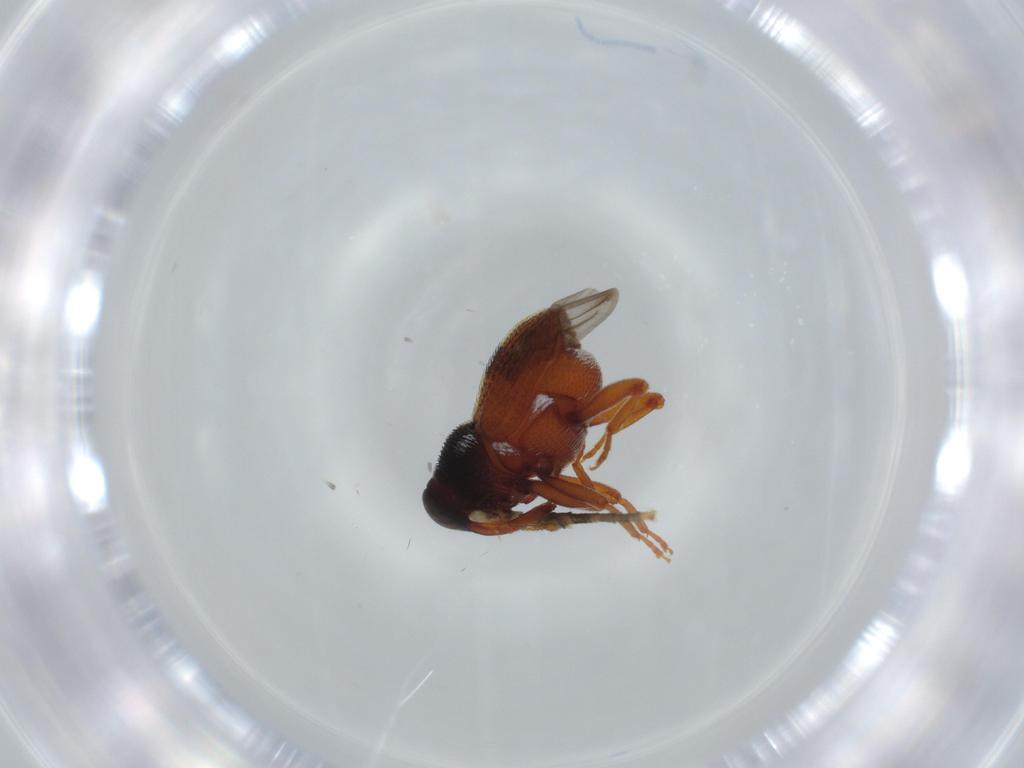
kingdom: Animalia
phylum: Arthropoda
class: Insecta
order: Coleoptera
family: Curculionidae
